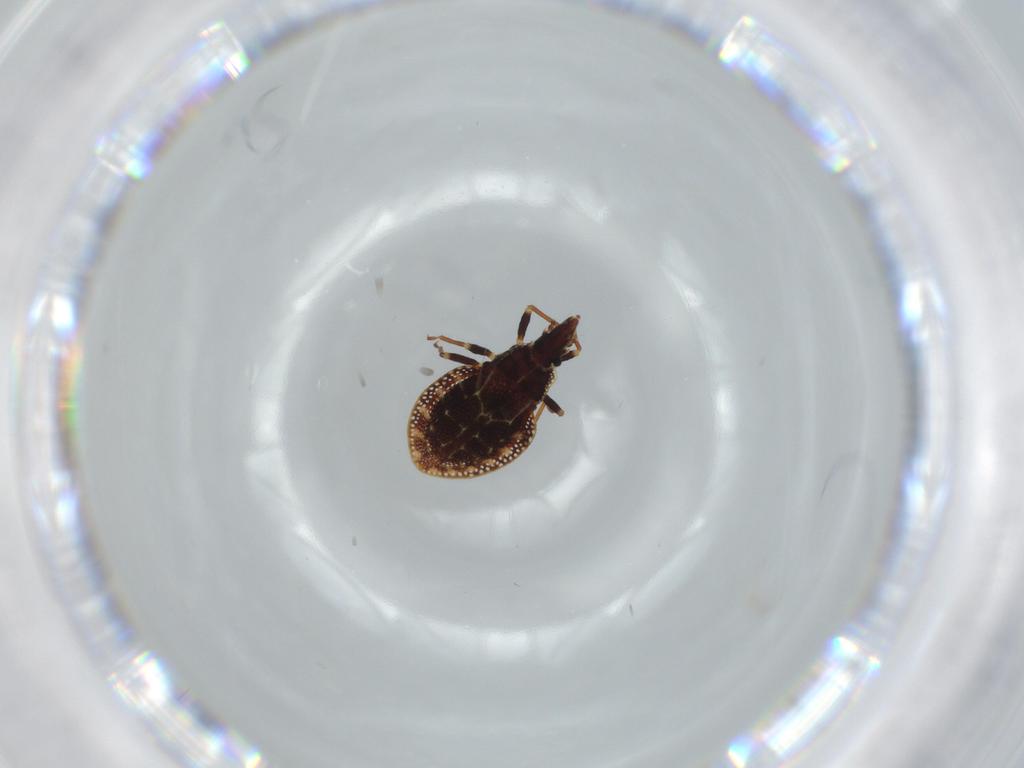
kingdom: Animalia
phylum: Arthropoda
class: Insecta
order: Hemiptera
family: Tingidae
